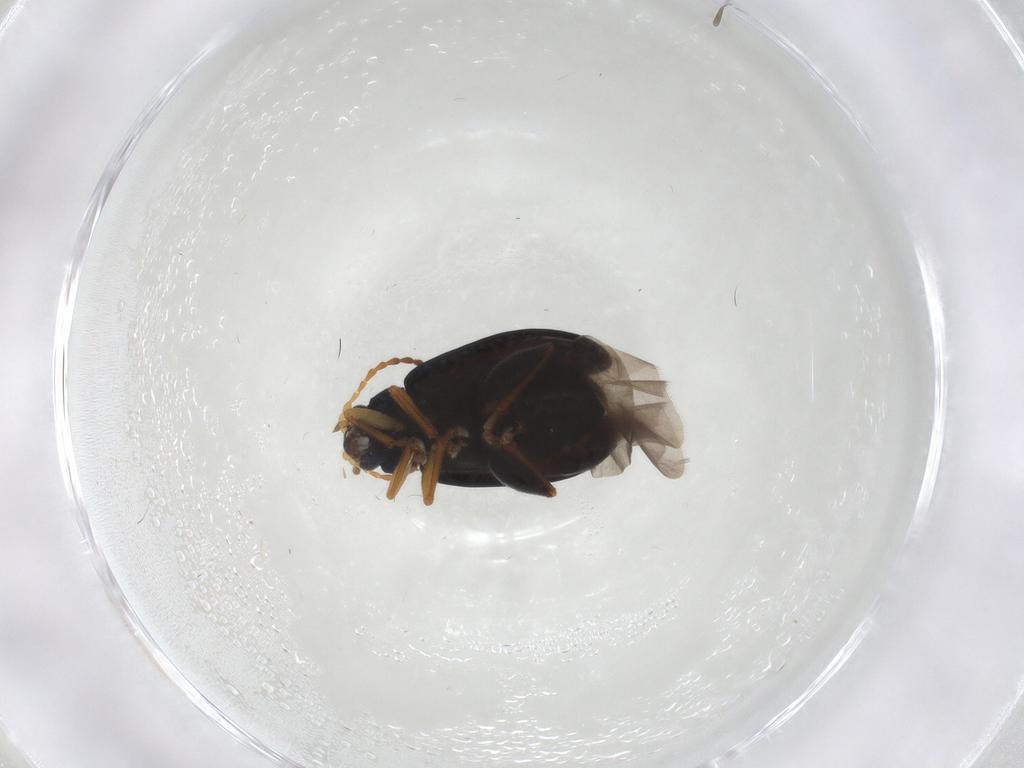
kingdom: Animalia
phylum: Arthropoda
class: Insecta
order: Coleoptera
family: Chrysomelidae
